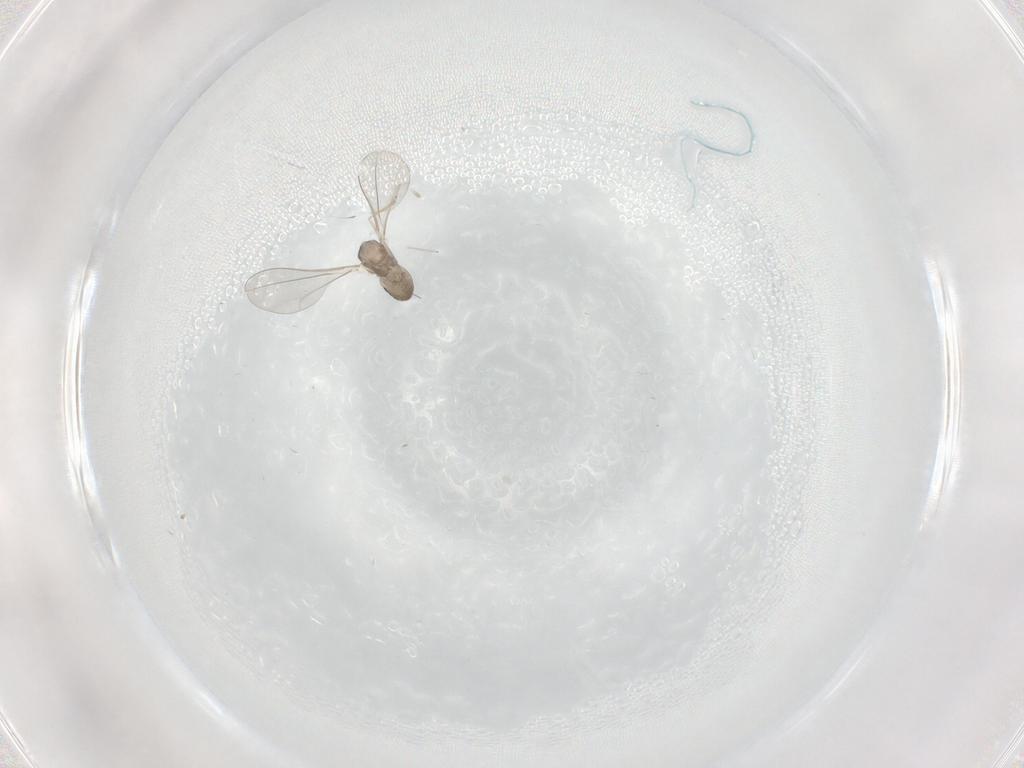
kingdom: Animalia
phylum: Arthropoda
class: Insecta
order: Diptera
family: Cecidomyiidae
